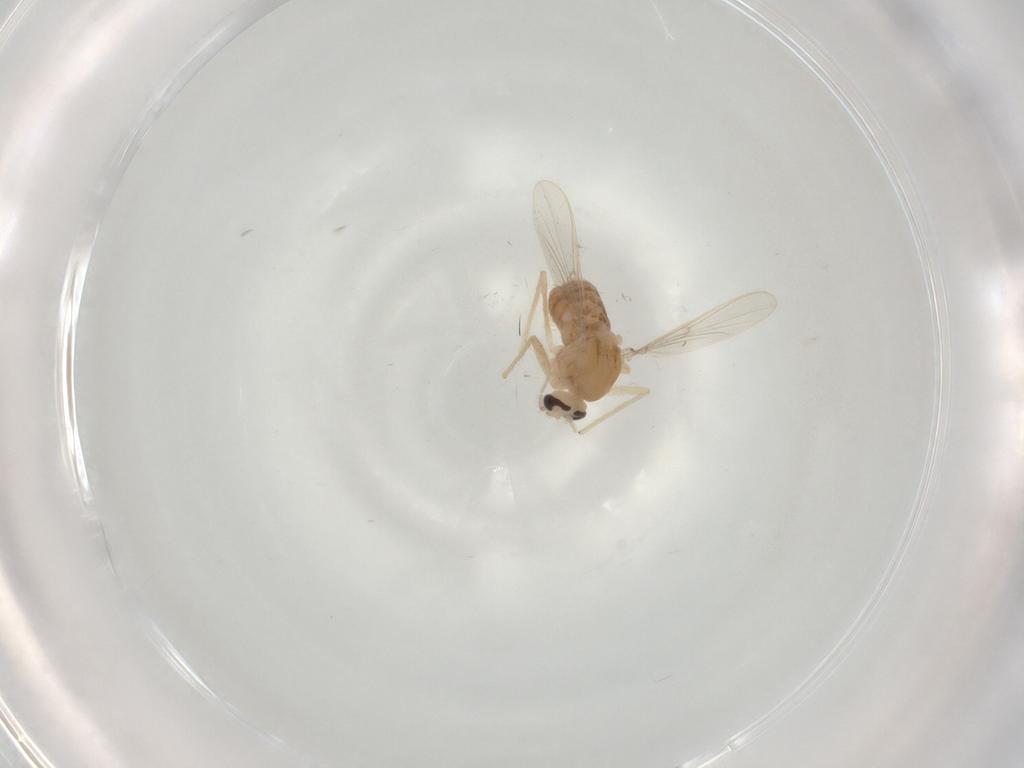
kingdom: Animalia
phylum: Arthropoda
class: Insecta
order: Diptera
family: Chironomidae
